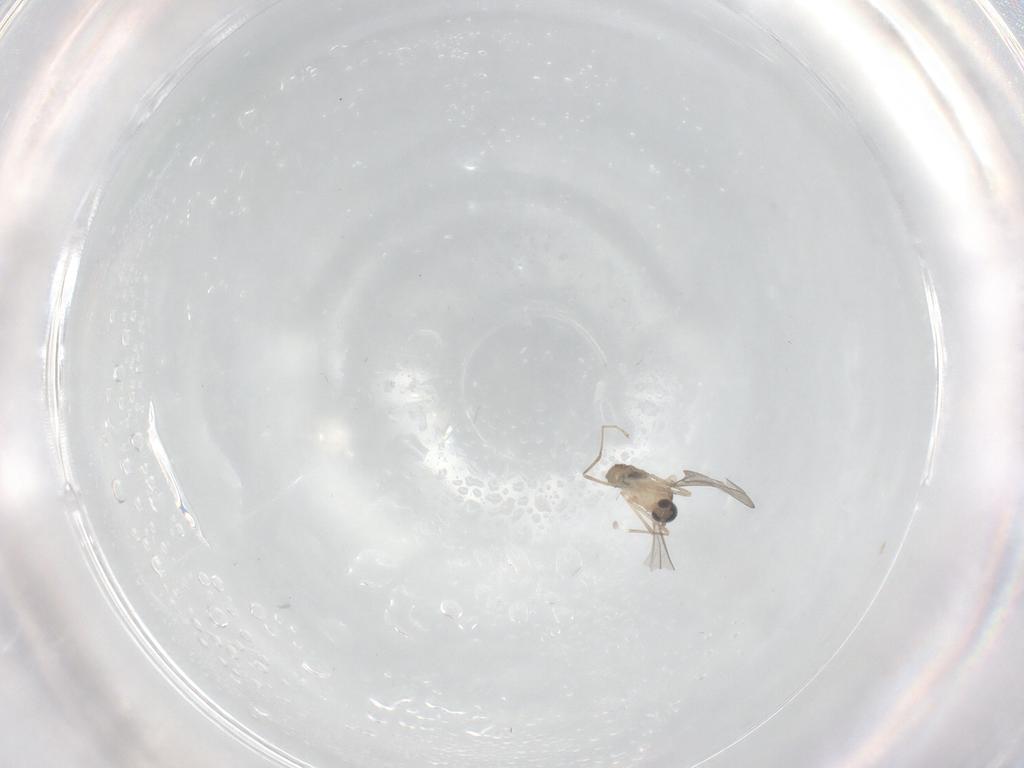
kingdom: Animalia
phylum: Arthropoda
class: Insecta
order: Diptera
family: Cecidomyiidae
